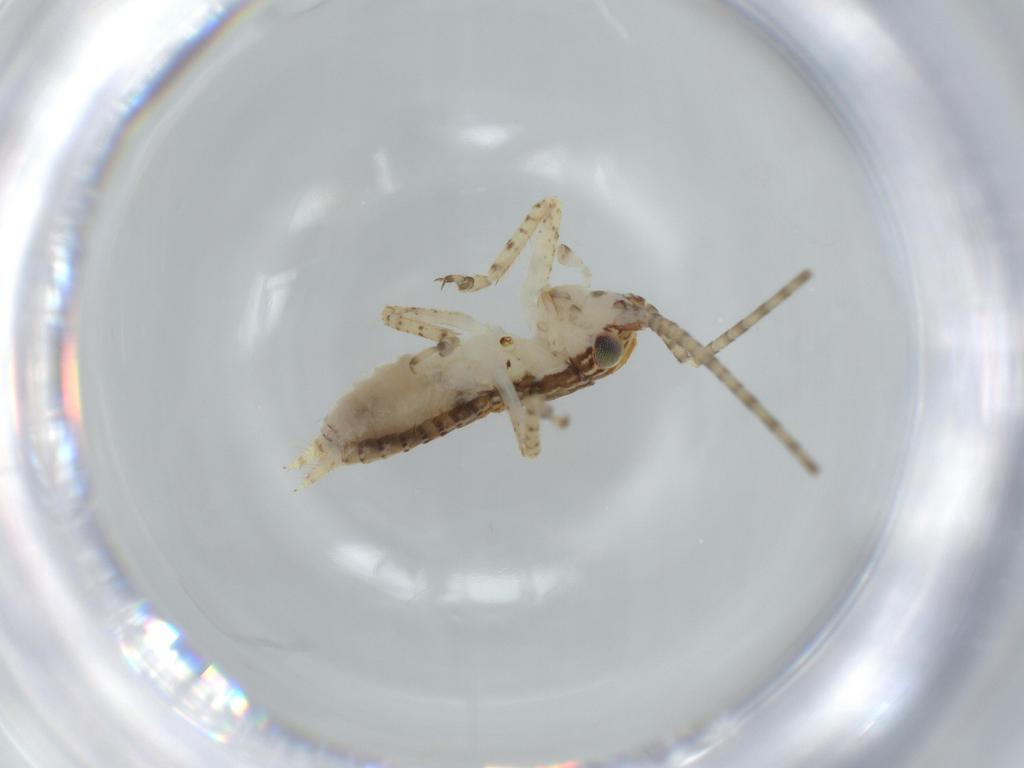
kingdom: Animalia
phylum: Arthropoda
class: Insecta
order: Orthoptera
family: Gryllidae
